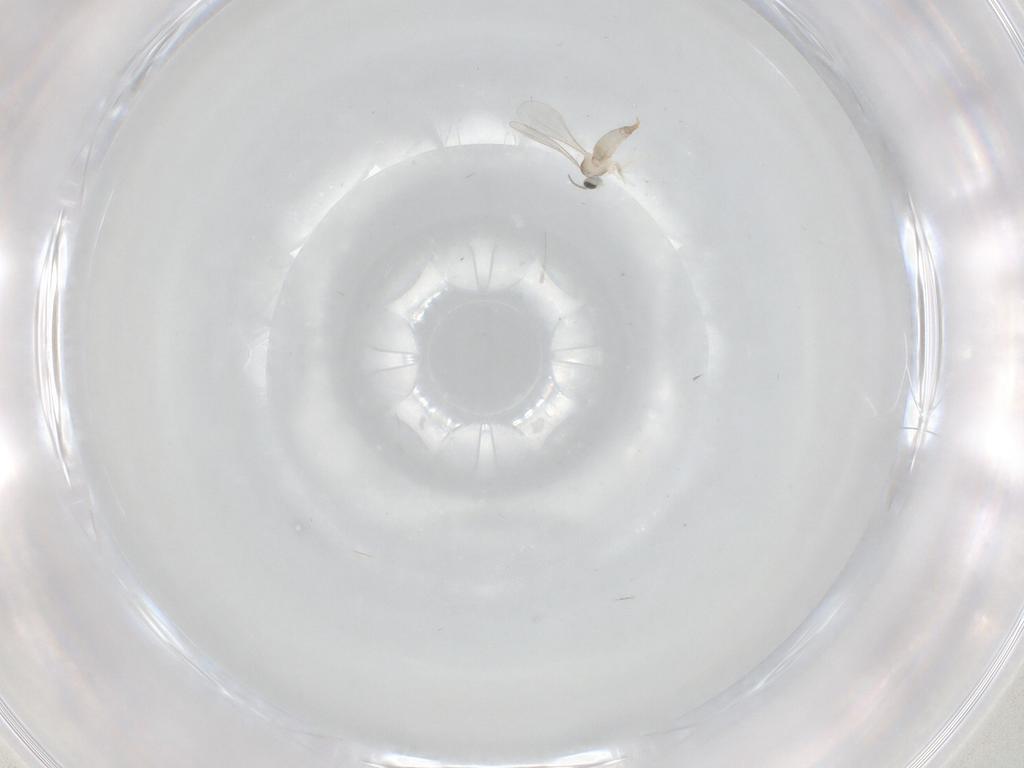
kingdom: Animalia
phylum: Arthropoda
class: Insecta
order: Diptera
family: Cecidomyiidae
